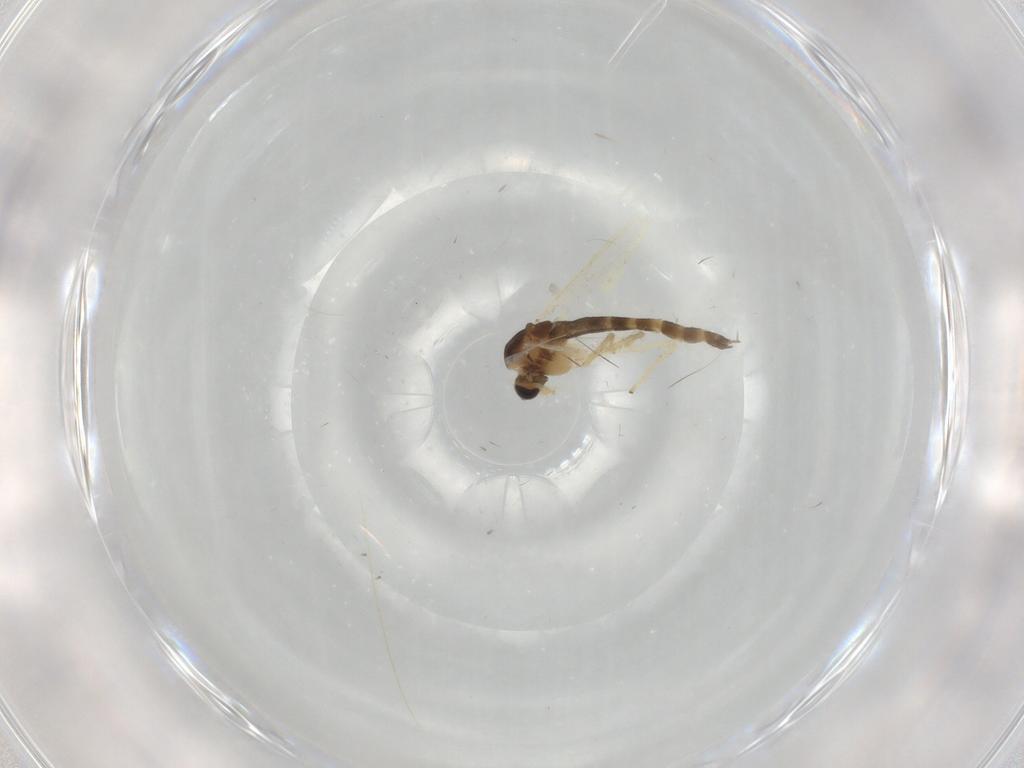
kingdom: Animalia
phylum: Arthropoda
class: Insecta
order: Diptera
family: Chironomidae
